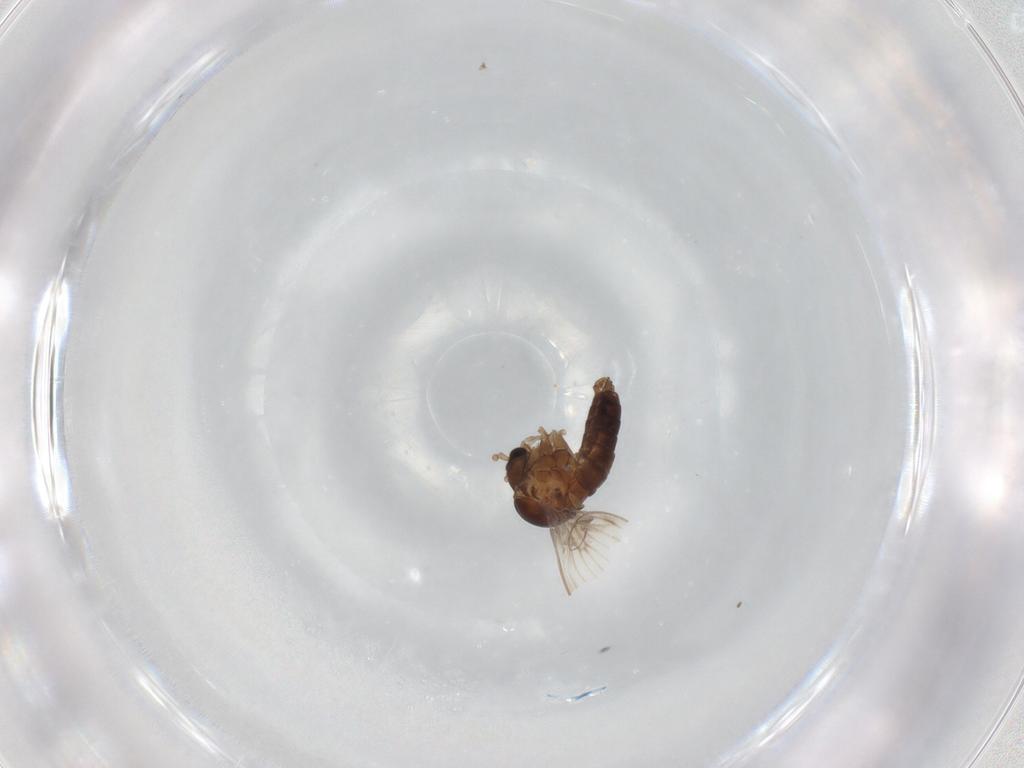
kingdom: Animalia
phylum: Arthropoda
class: Insecta
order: Diptera
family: Psychodidae
